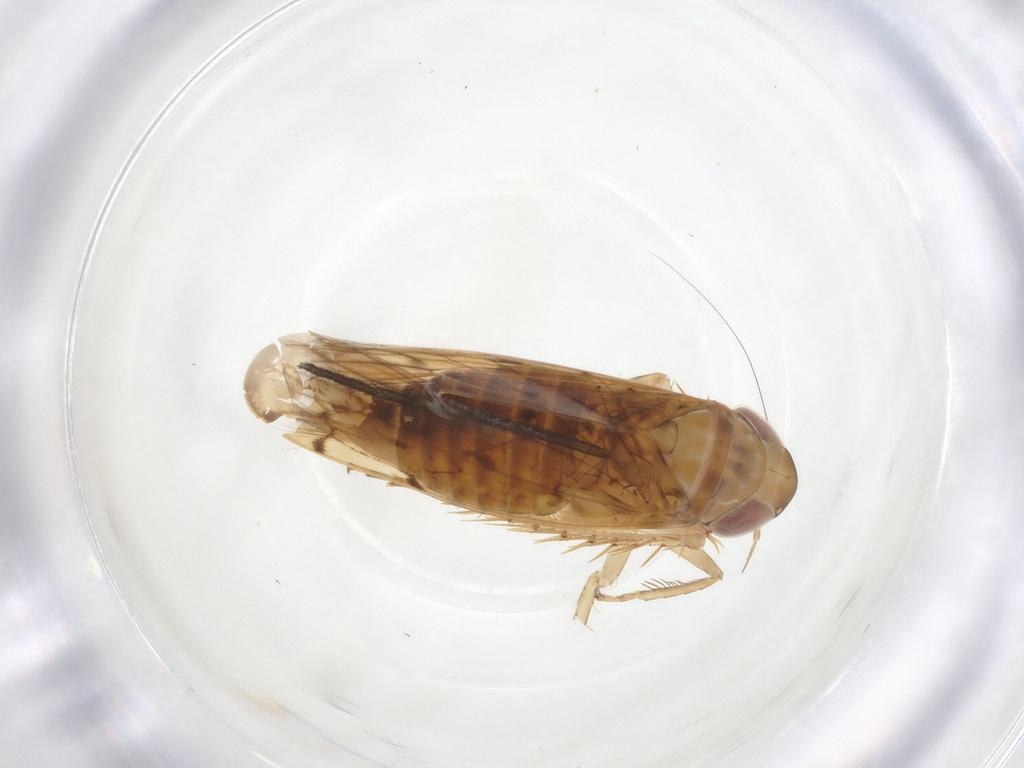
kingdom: Animalia
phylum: Arthropoda
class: Insecta
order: Hemiptera
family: Cicadellidae
